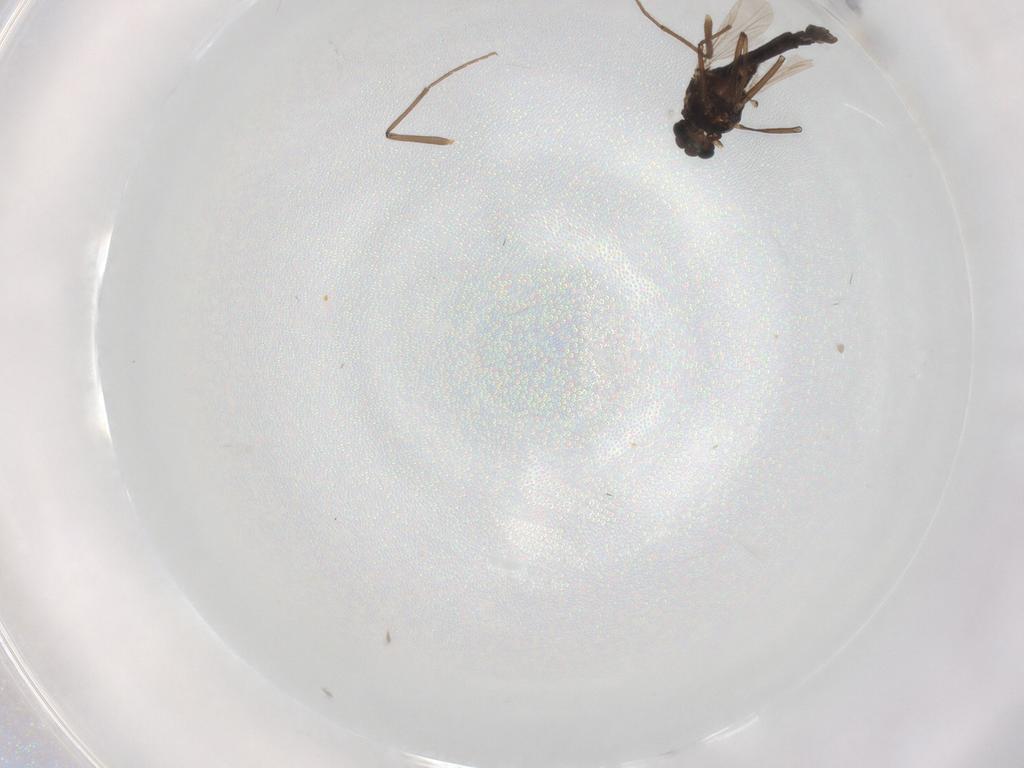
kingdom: Animalia
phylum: Arthropoda
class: Insecta
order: Diptera
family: Chironomidae
